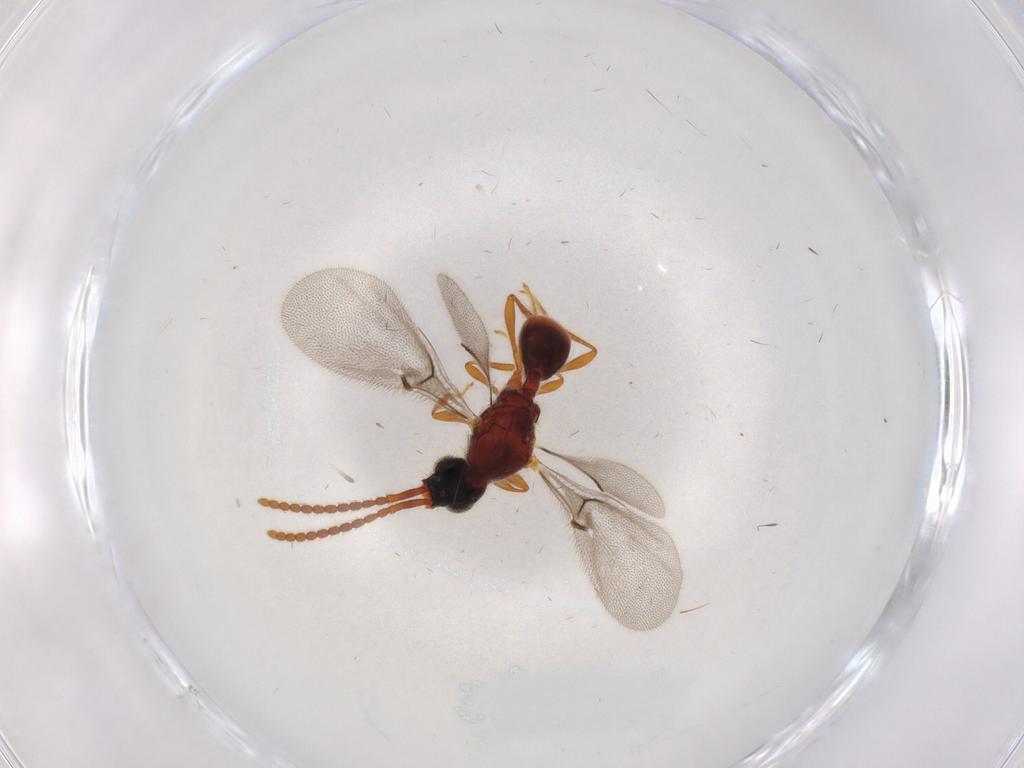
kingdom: Animalia
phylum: Arthropoda
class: Insecta
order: Hymenoptera
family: Diapriidae
